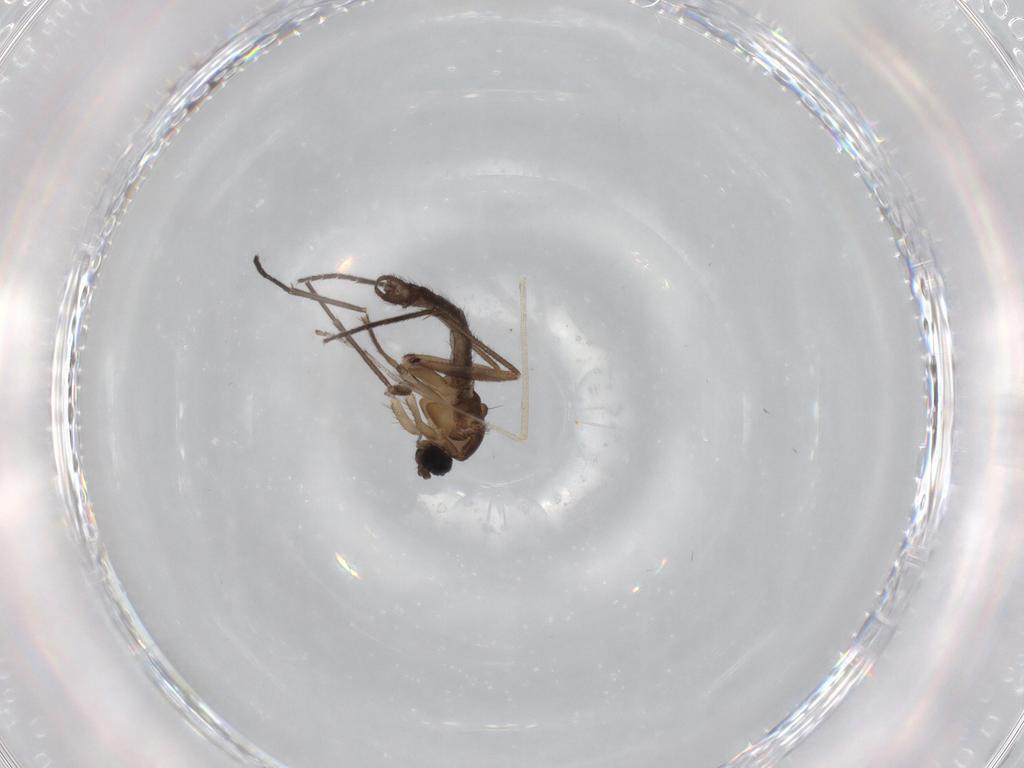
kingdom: Animalia
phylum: Arthropoda
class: Insecta
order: Diptera
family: Limoniidae
